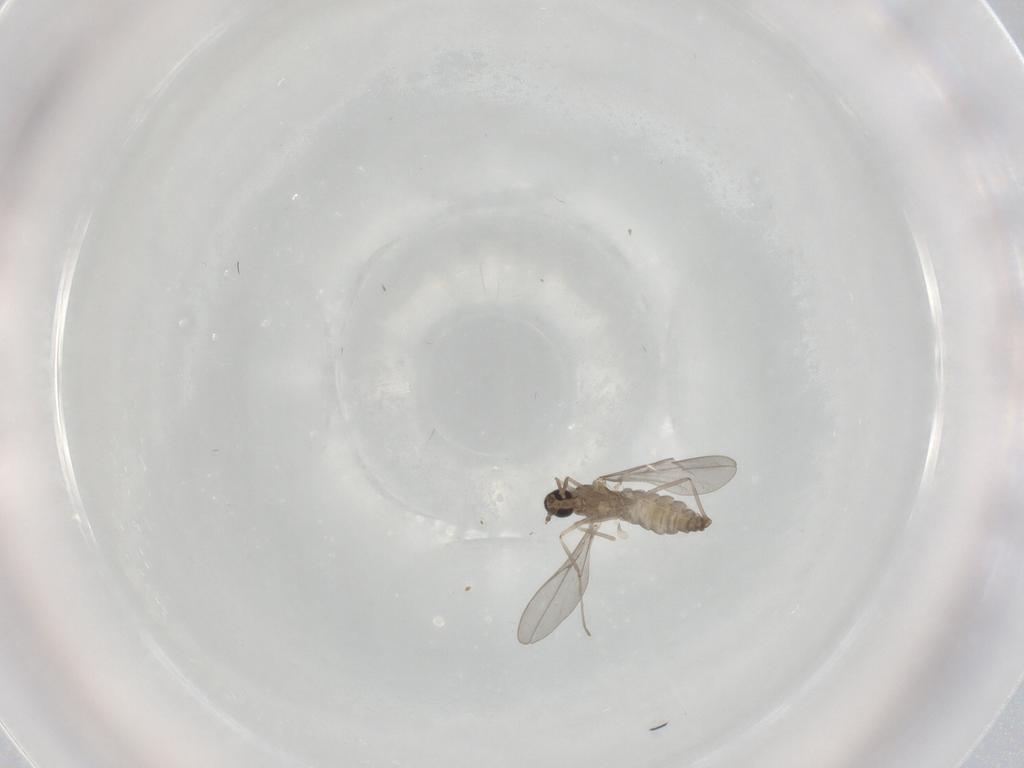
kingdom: Animalia
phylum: Arthropoda
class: Insecta
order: Diptera
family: Cecidomyiidae
